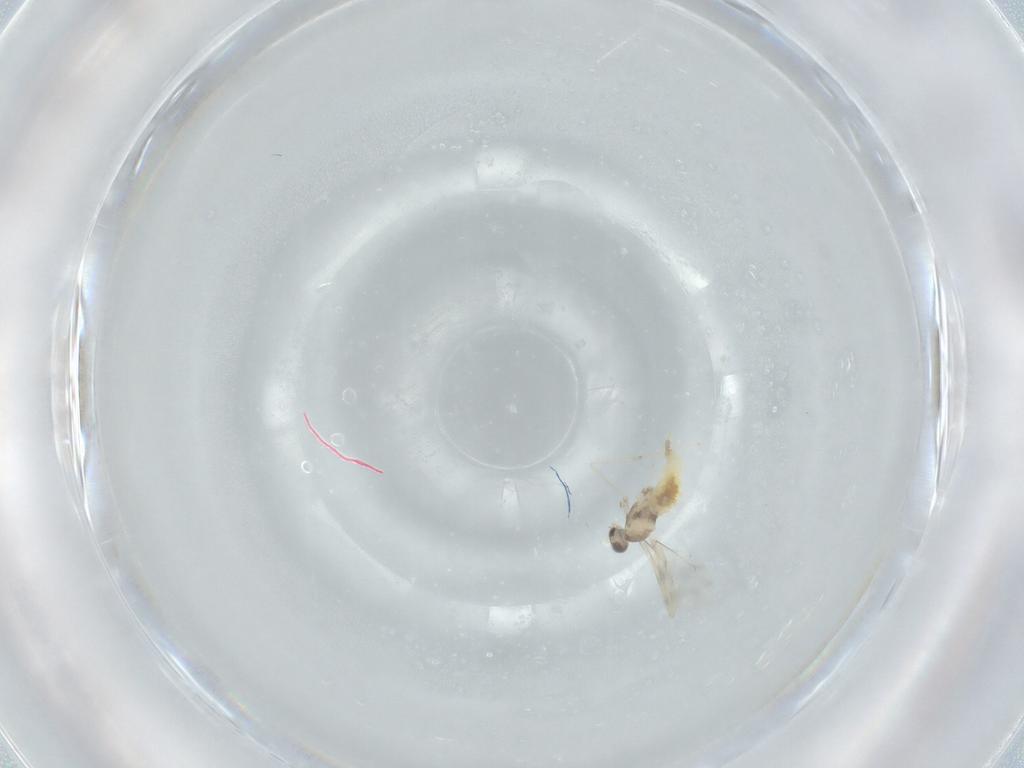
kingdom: Animalia
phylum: Arthropoda
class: Insecta
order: Diptera
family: Cecidomyiidae
